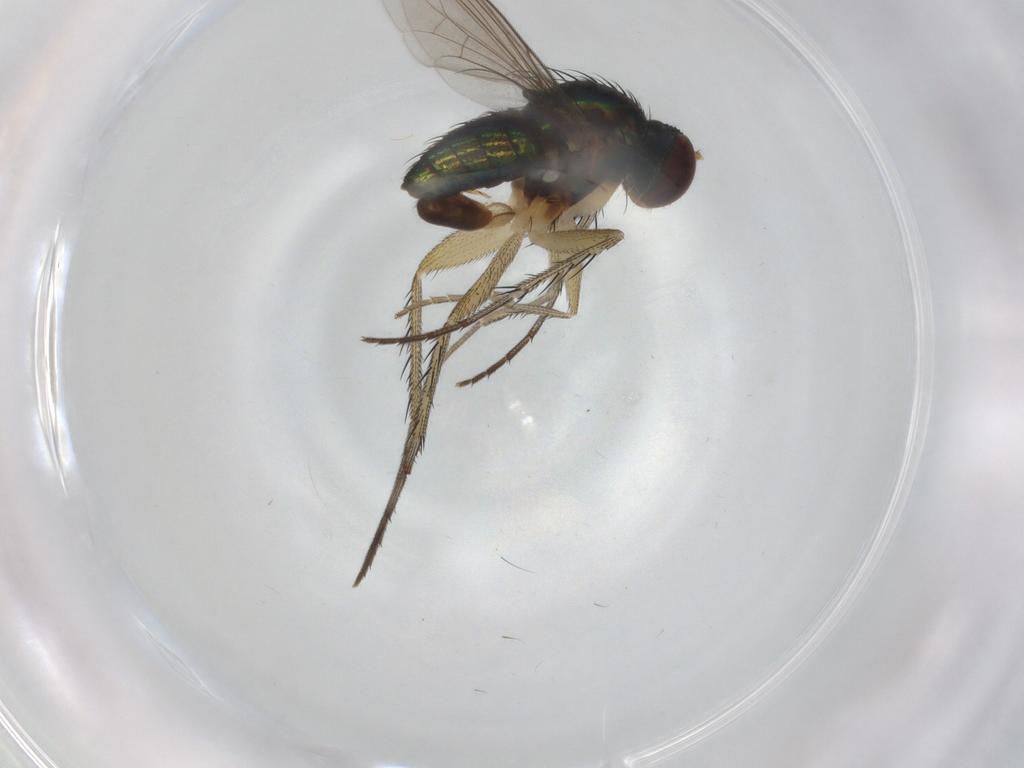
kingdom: Animalia
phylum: Arthropoda
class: Insecta
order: Diptera
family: Dolichopodidae
